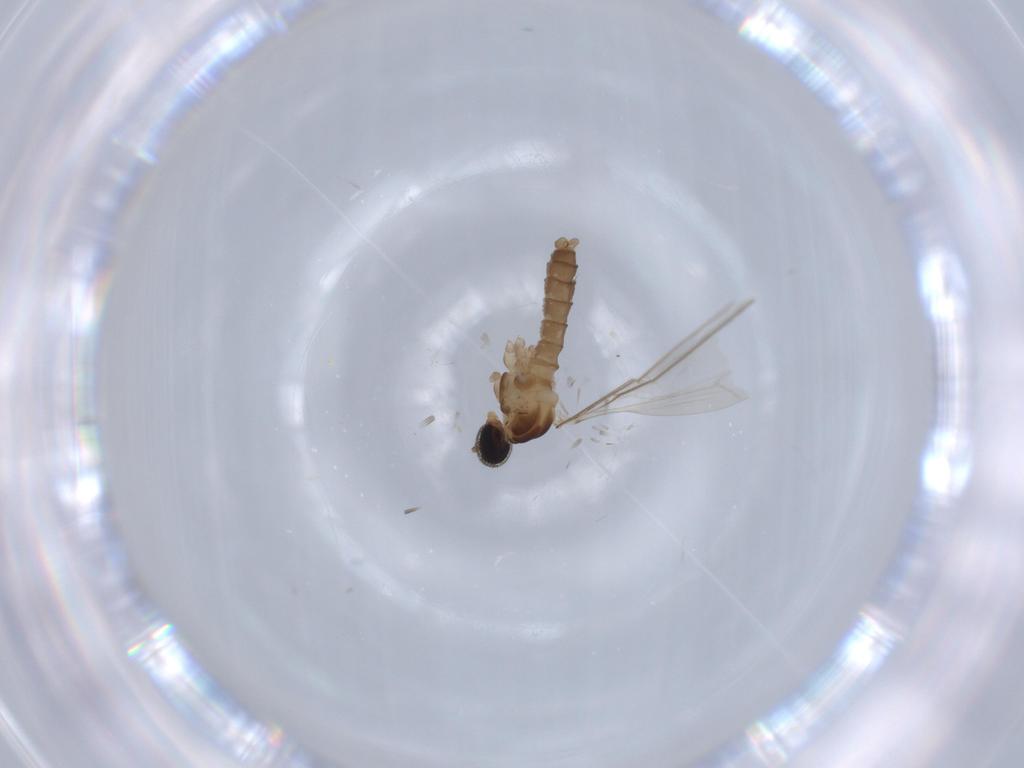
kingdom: Animalia
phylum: Arthropoda
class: Insecta
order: Diptera
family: Cecidomyiidae
